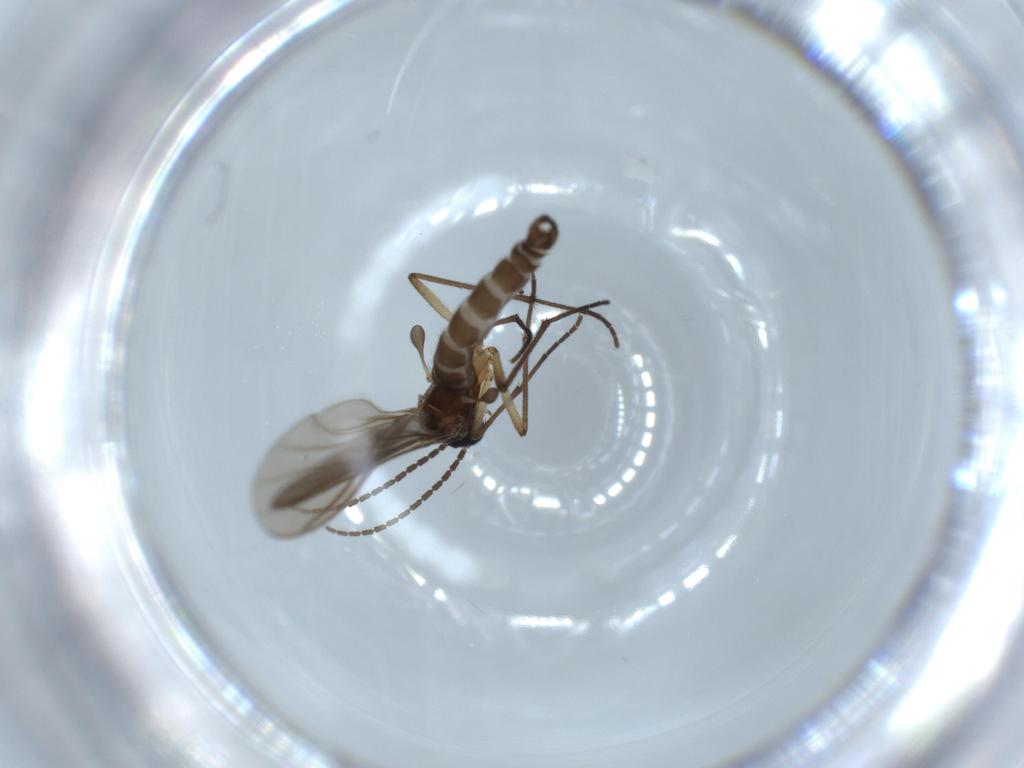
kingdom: Animalia
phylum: Arthropoda
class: Insecta
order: Diptera
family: Sciaridae
